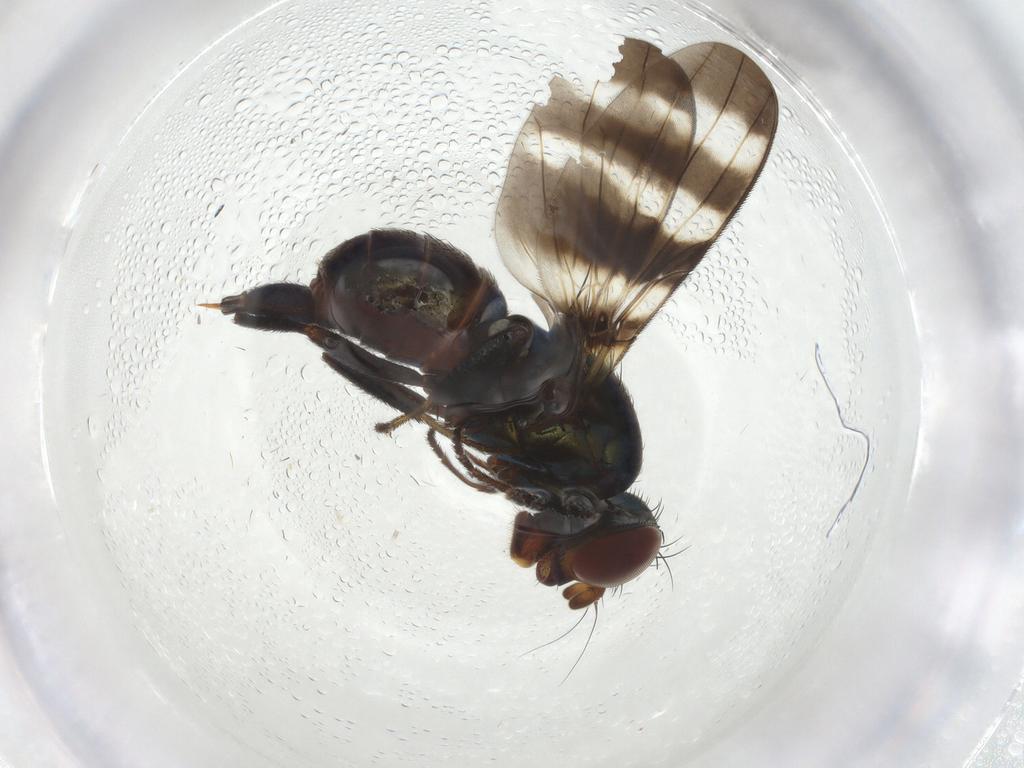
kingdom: Animalia
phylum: Arthropoda
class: Insecta
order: Diptera
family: Ulidiidae
